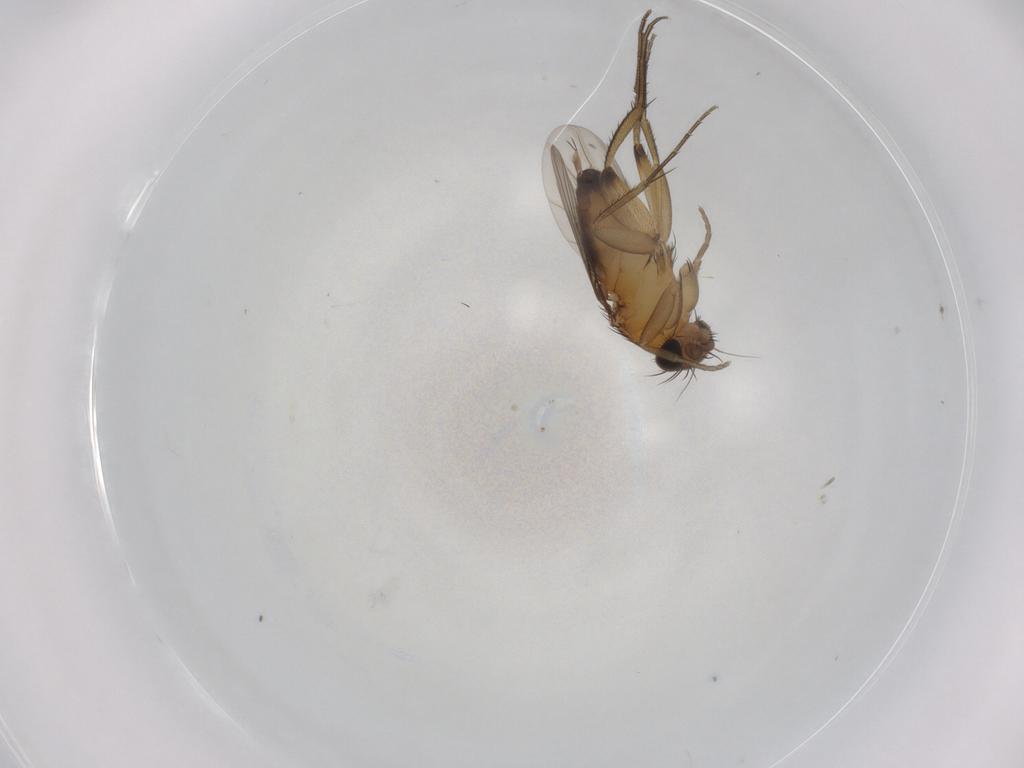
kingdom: Animalia
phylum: Arthropoda
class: Insecta
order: Diptera
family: Phoridae
